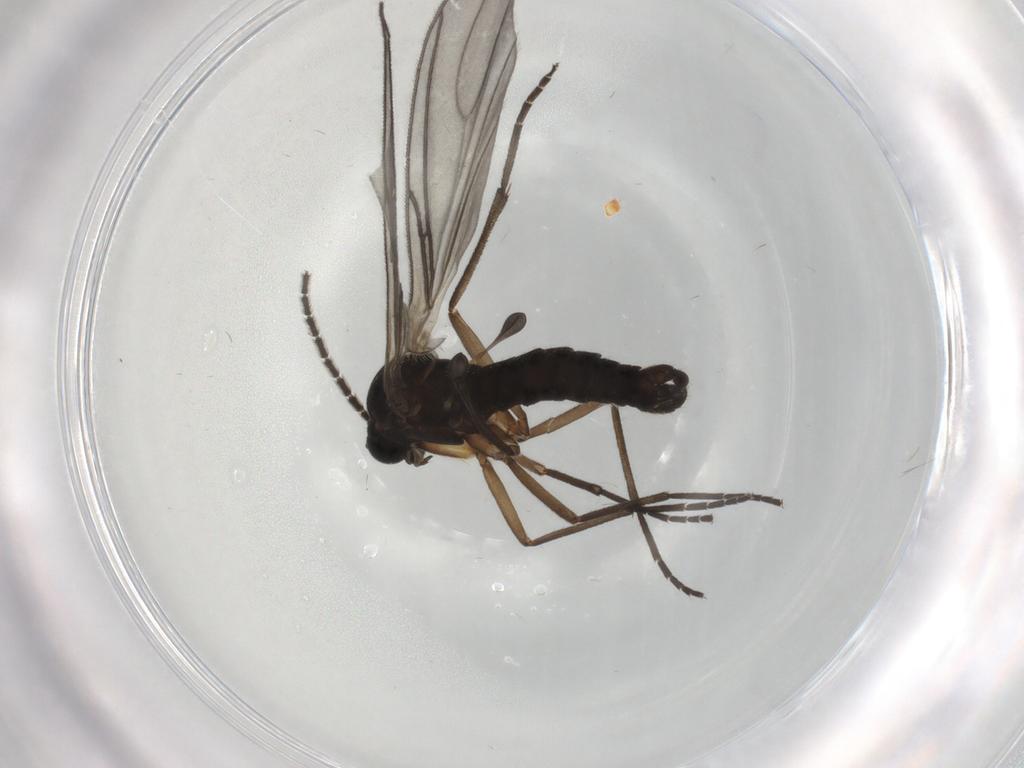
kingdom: Animalia
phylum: Arthropoda
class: Insecta
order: Diptera
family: Sciaridae
